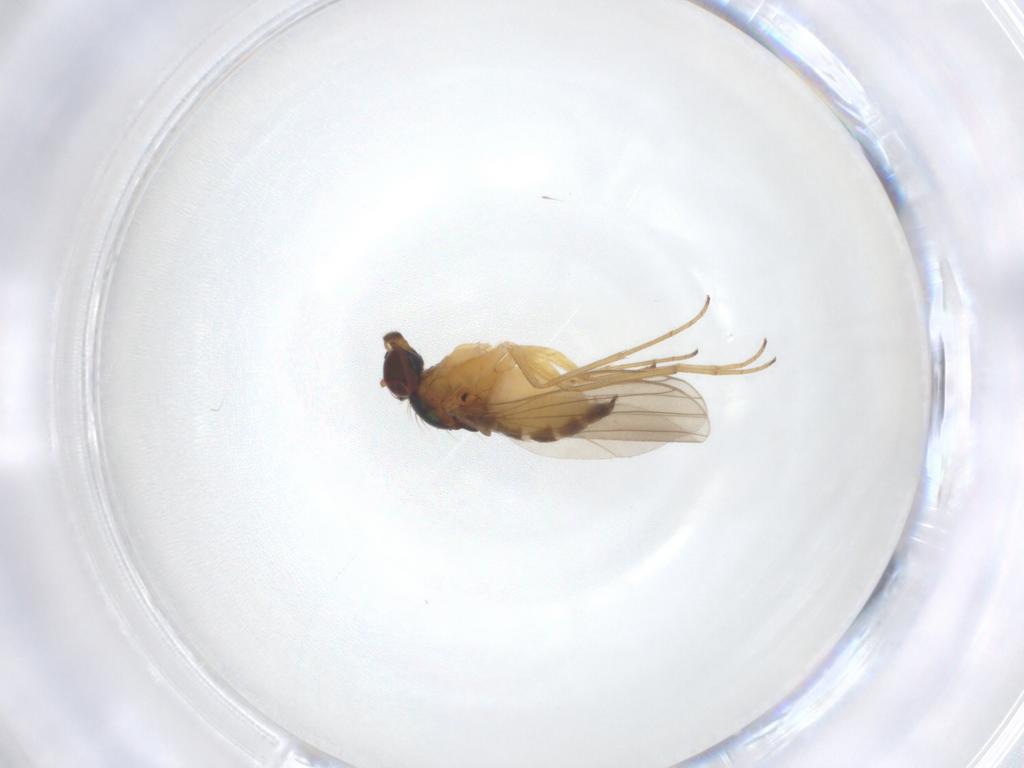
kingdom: Animalia
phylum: Arthropoda
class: Insecta
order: Diptera
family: Dolichopodidae
